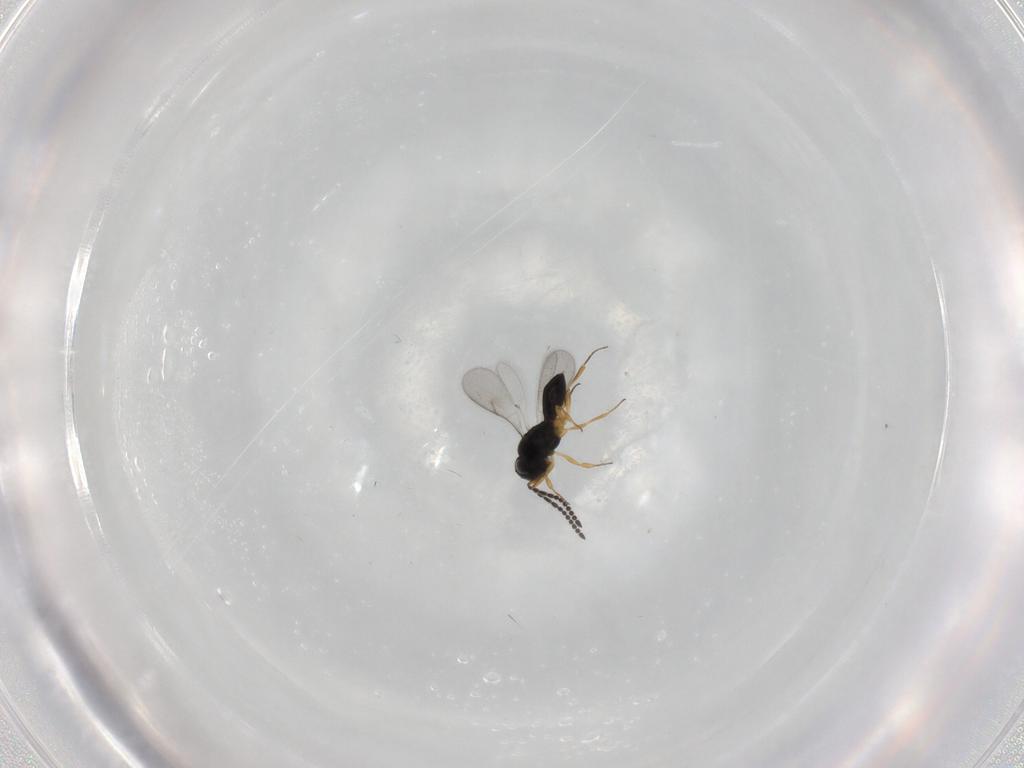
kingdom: Animalia
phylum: Arthropoda
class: Insecta
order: Hymenoptera
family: Scelionidae
